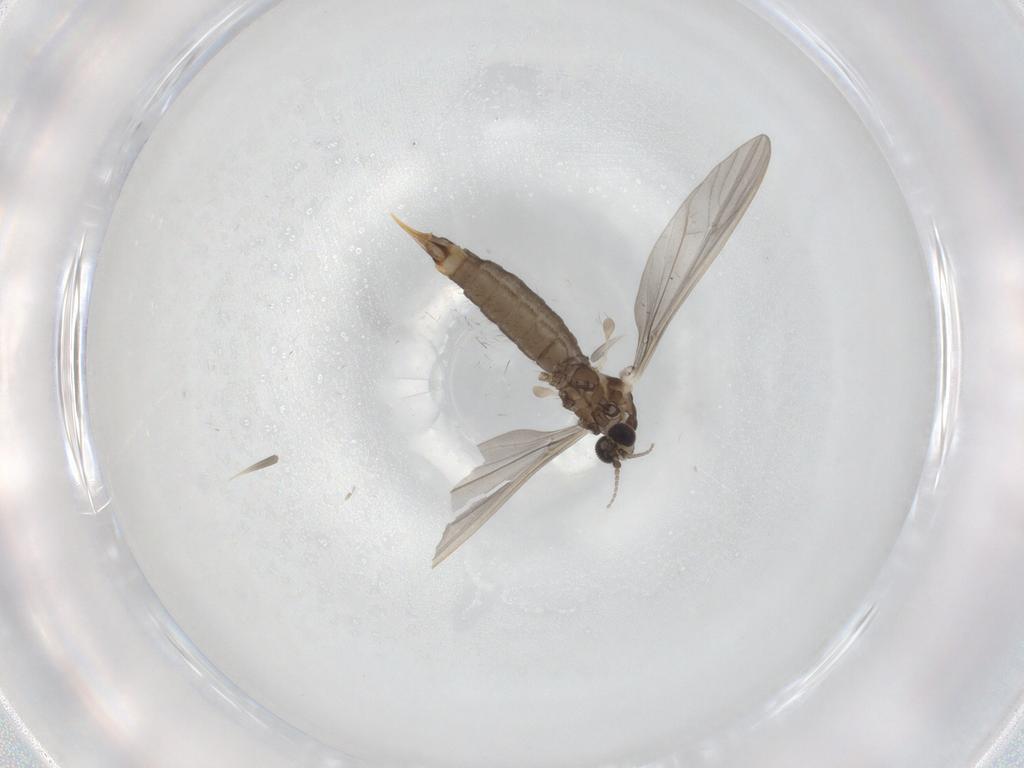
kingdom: Animalia
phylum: Arthropoda
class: Insecta
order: Diptera
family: Limoniidae
